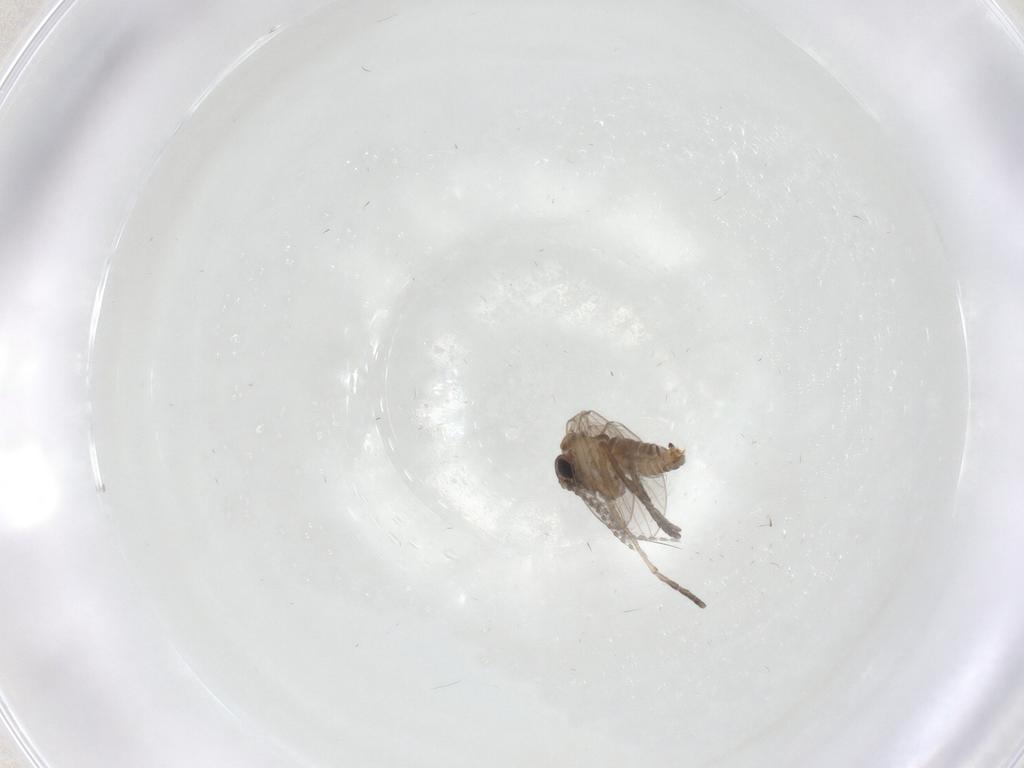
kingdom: Animalia
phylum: Arthropoda
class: Insecta
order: Diptera
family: Psychodidae
